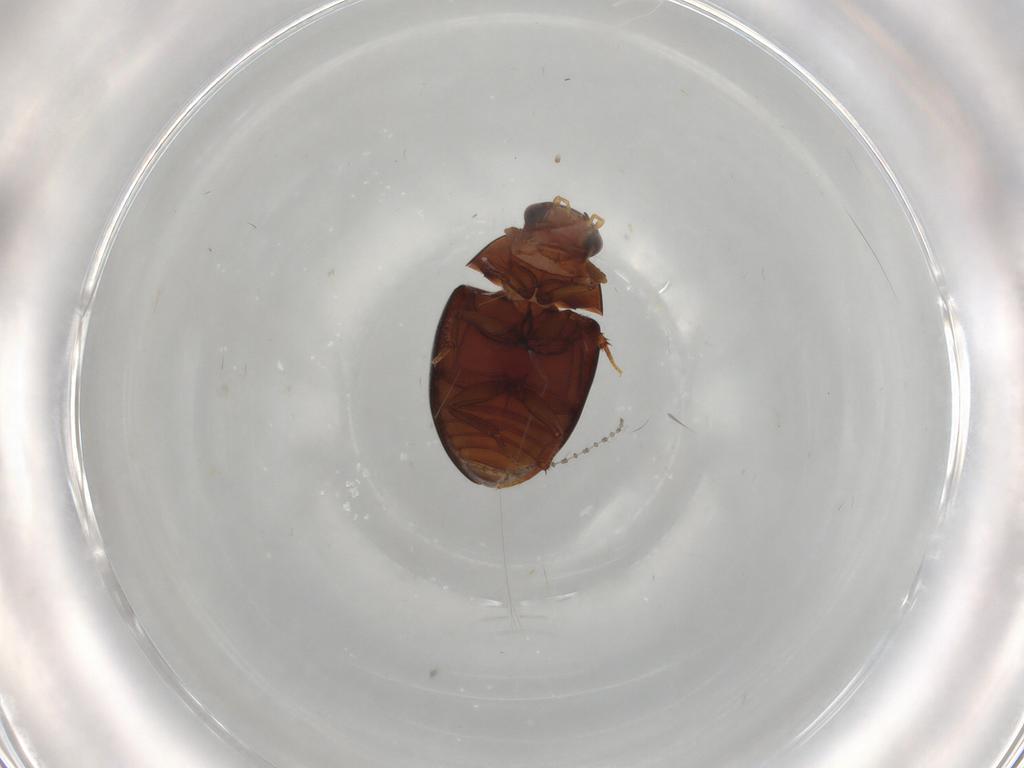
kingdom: Animalia
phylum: Arthropoda
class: Insecta
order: Coleoptera
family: Hydrophilidae
